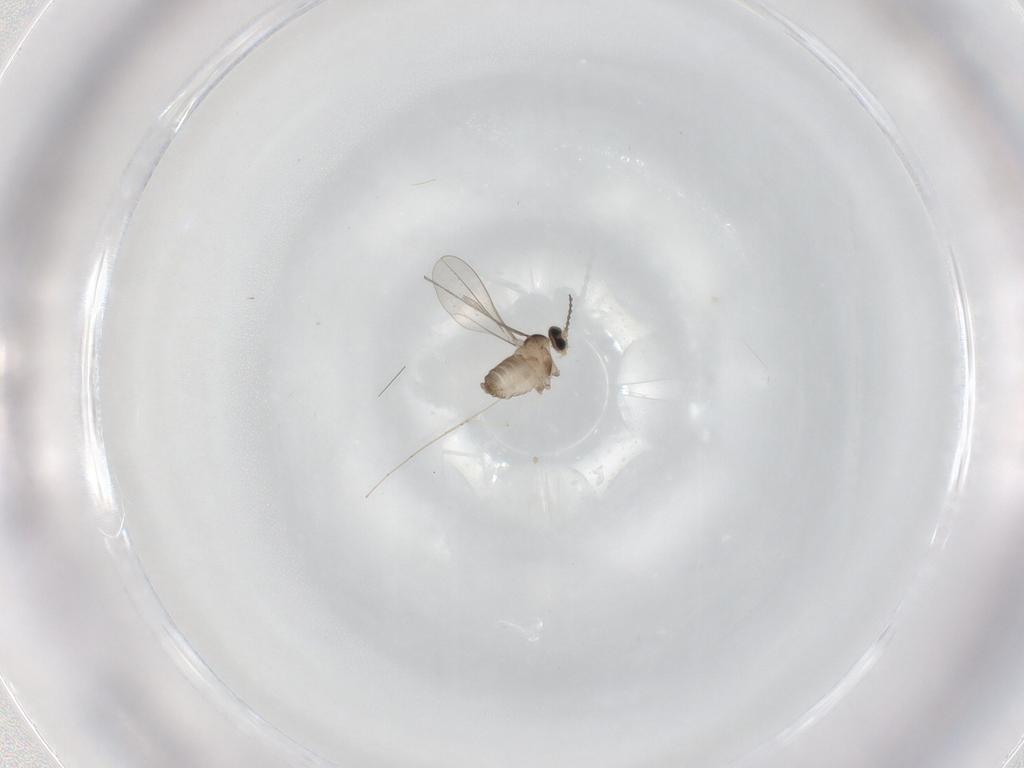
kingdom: Animalia
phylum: Arthropoda
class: Insecta
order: Diptera
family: Cecidomyiidae
